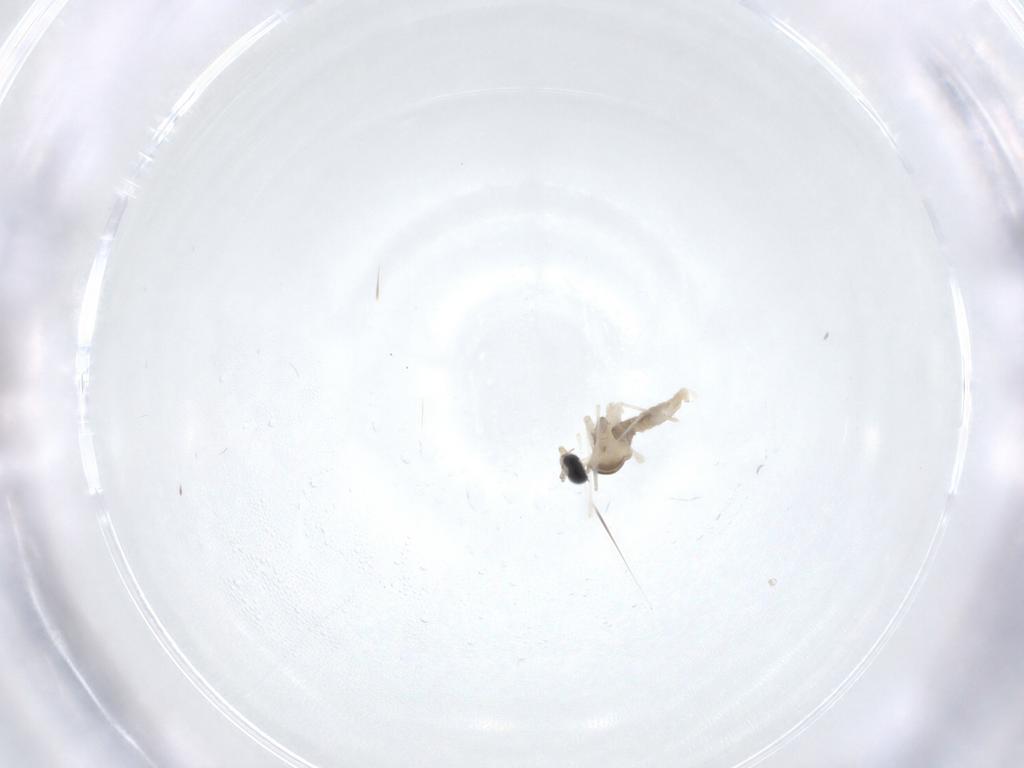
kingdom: Animalia
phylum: Arthropoda
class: Insecta
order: Diptera
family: Cecidomyiidae
